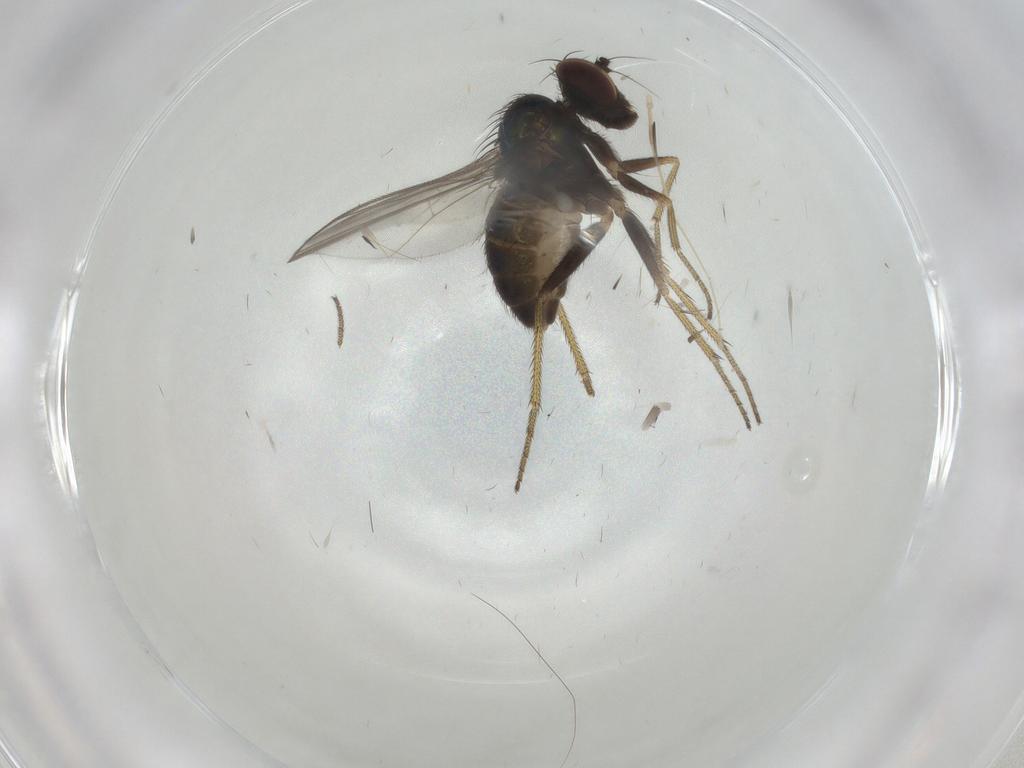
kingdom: Animalia
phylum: Arthropoda
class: Insecta
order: Diptera
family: Dolichopodidae
